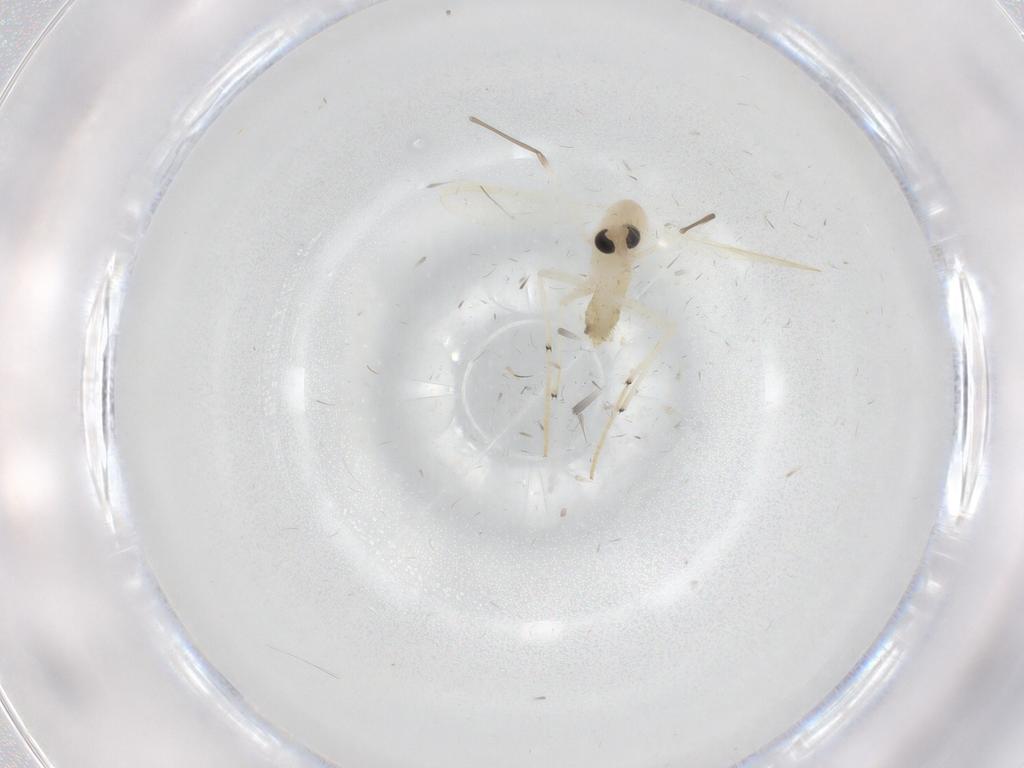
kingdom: Animalia
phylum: Arthropoda
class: Insecta
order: Diptera
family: Chironomidae
